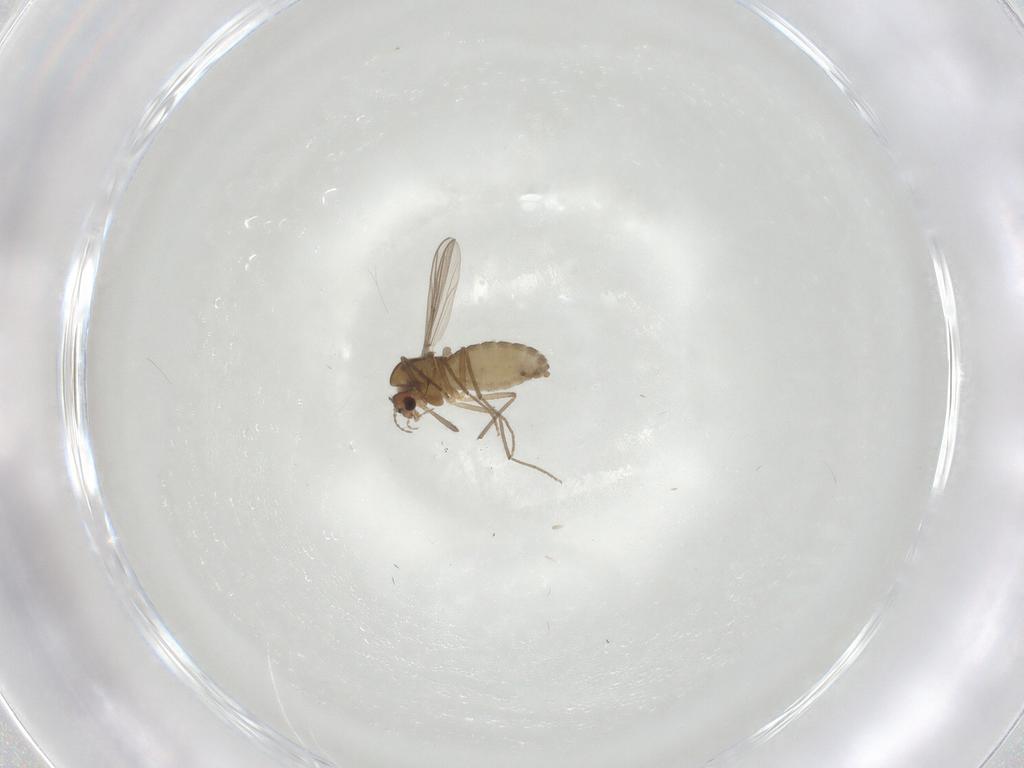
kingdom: Animalia
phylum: Arthropoda
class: Insecta
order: Diptera
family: Chironomidae
